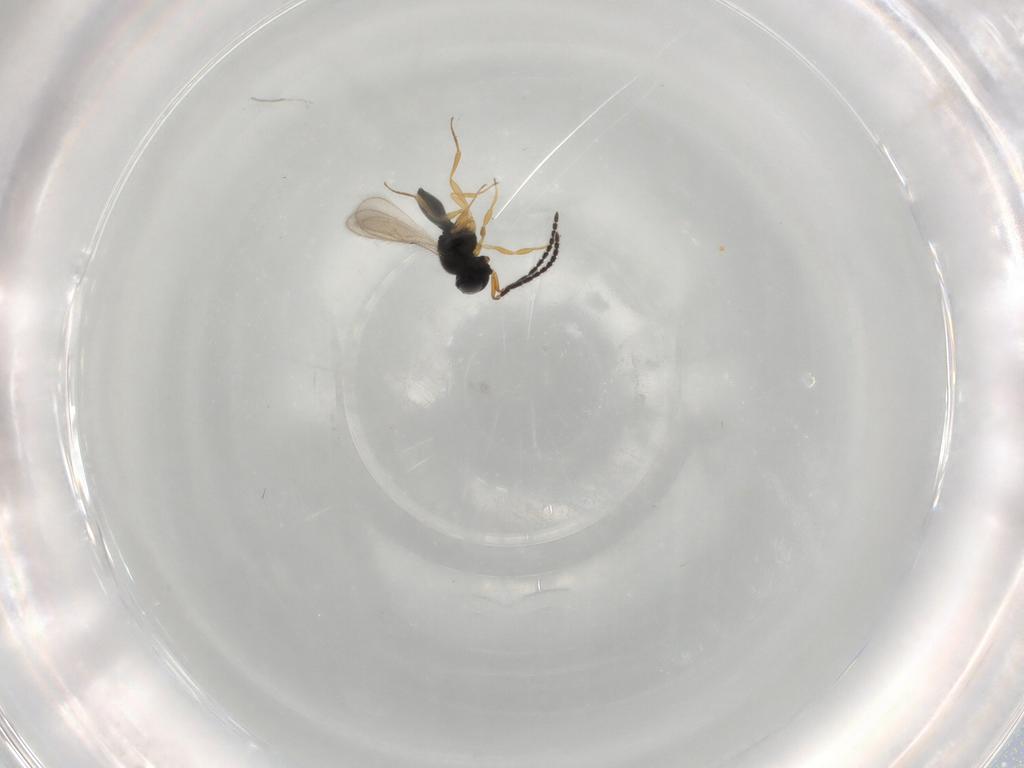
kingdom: Animalia
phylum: Arthropoda
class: Insecta
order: Hymenoptera
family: Scelionidae
